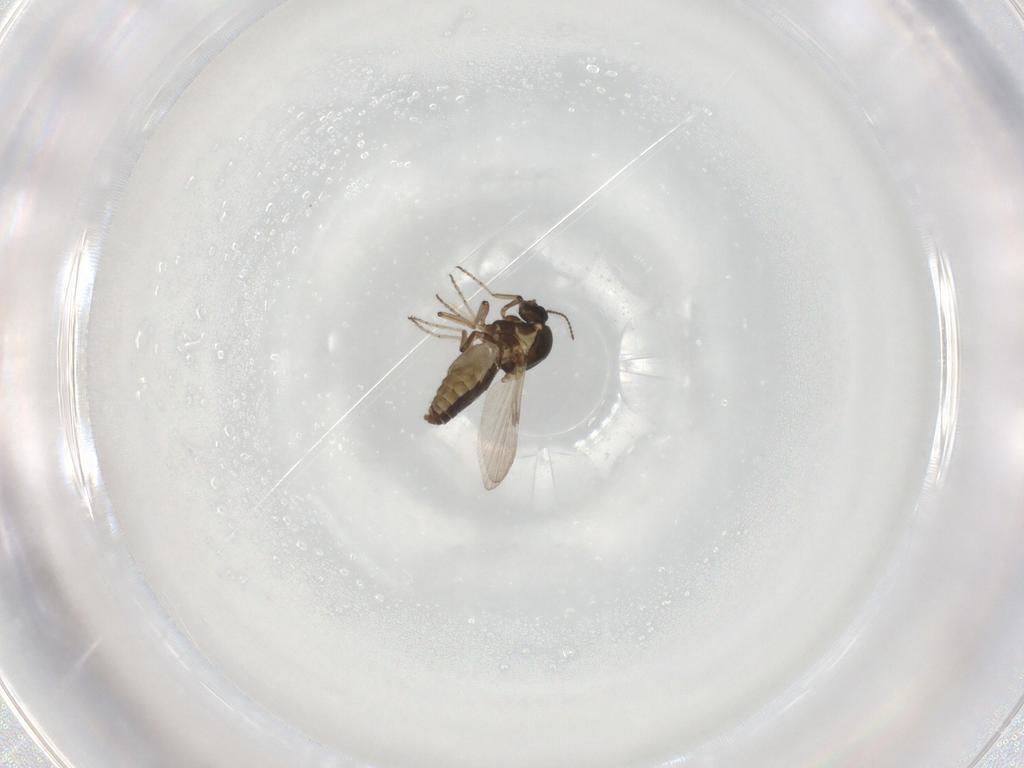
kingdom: Animalia
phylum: Arthropoda
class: Insecta
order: Diptera
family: Ceratopogonidae
